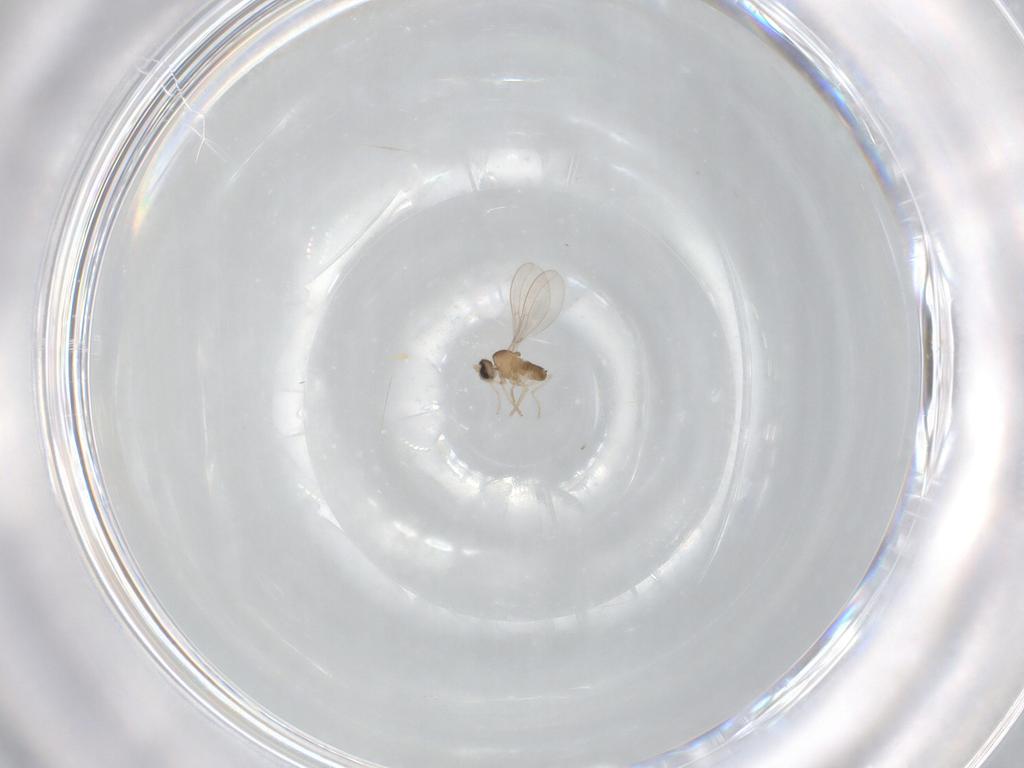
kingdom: Animalia
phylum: Arthropoda
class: Insecta
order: Diptera
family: Cecidomyiidae
